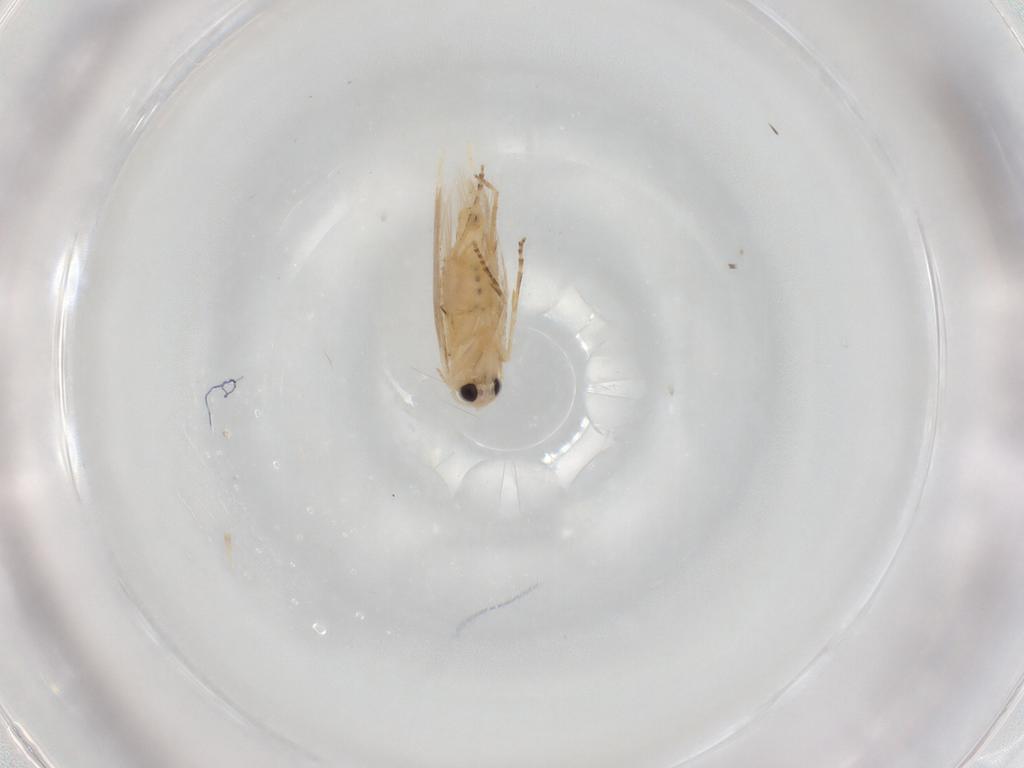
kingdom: Animalia
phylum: Arthropoda
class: Insecta
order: Lepidoptera
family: Depressariidae
